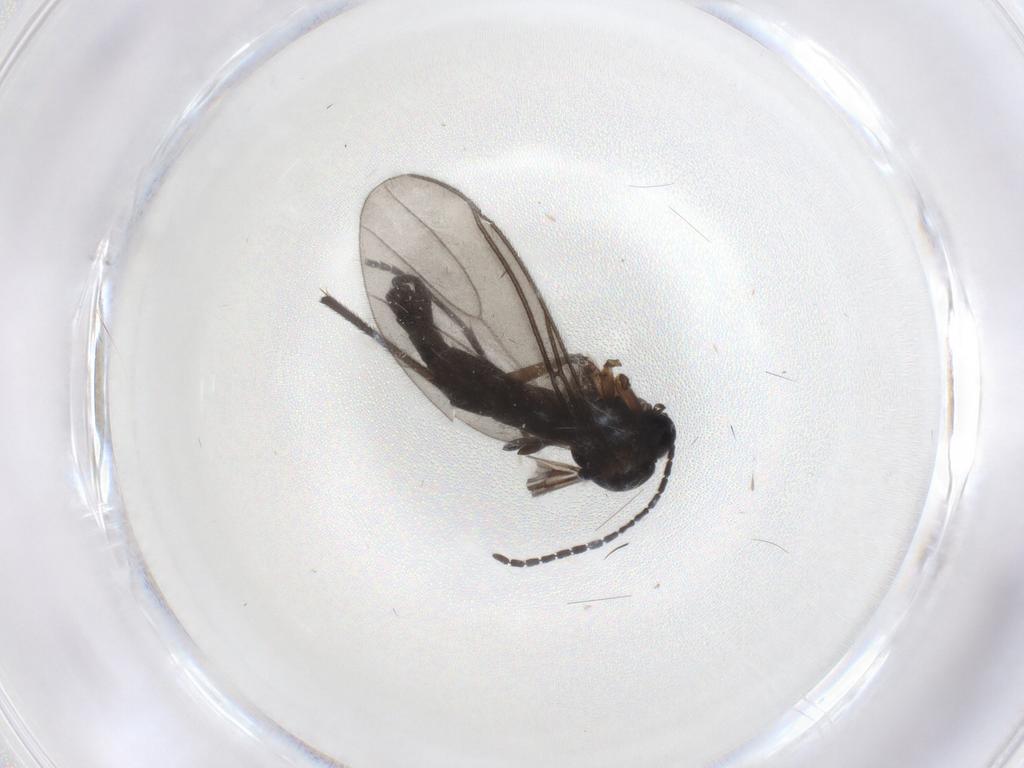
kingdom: Animalia
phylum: Arthropoda
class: Insecta
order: Diptera
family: Sciaridae
